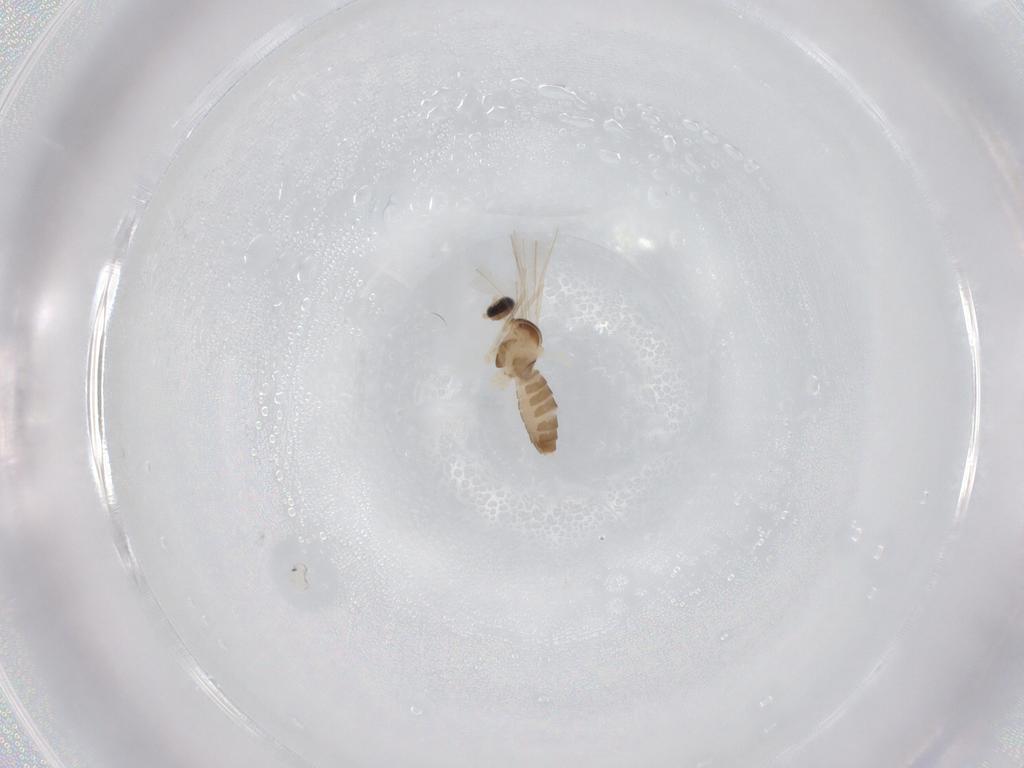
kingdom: Animalia
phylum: Arthropoda
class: Insecta
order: Diptera
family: Cecidomyiidae
